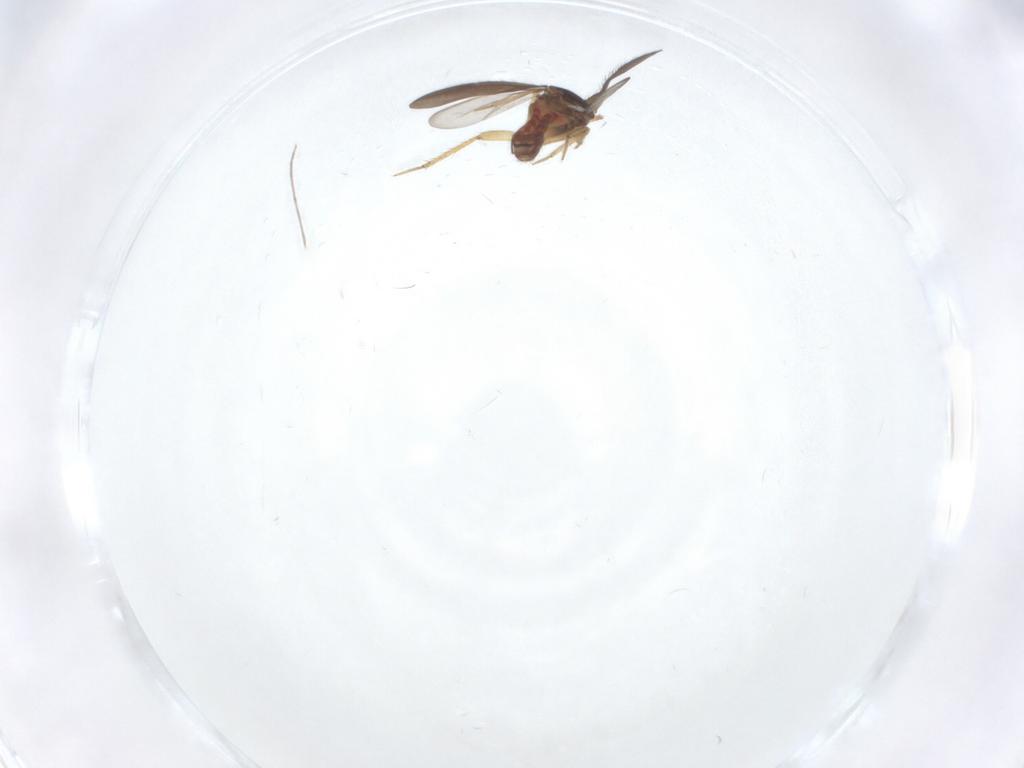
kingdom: Animalia
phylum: Arthropoda
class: Insecta
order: Hemiptera
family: Ceratocombidae
